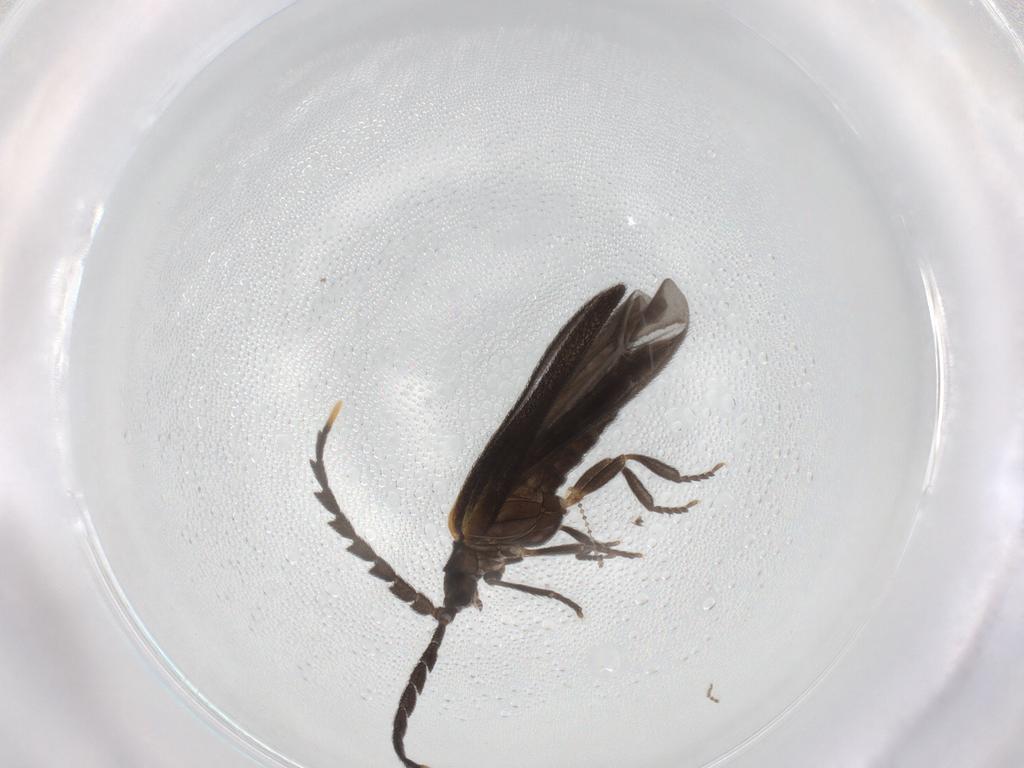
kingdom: Animalia
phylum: Arthropoda
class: Insecta
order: Coleoptera
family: Lycidae
